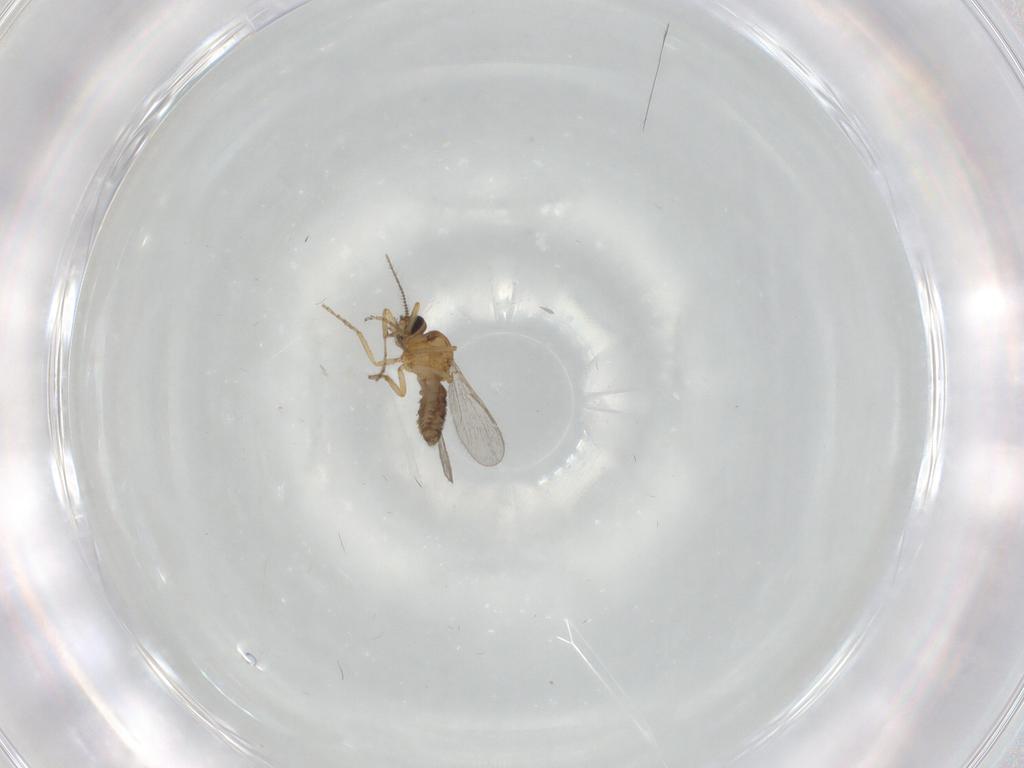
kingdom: Animalia
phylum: Arthropoda
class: Insecta
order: Diptera
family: Ceratopogonidae
